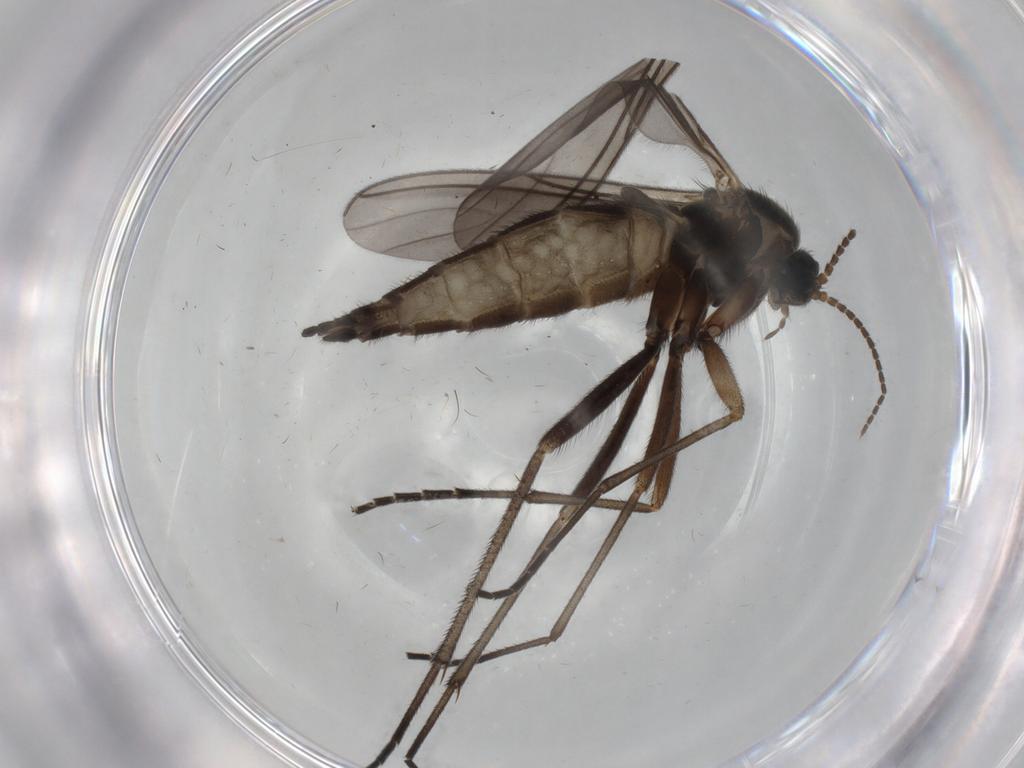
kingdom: Animalia
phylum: Arthropoda
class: Insecta
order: Diptera
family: Sciaridae
